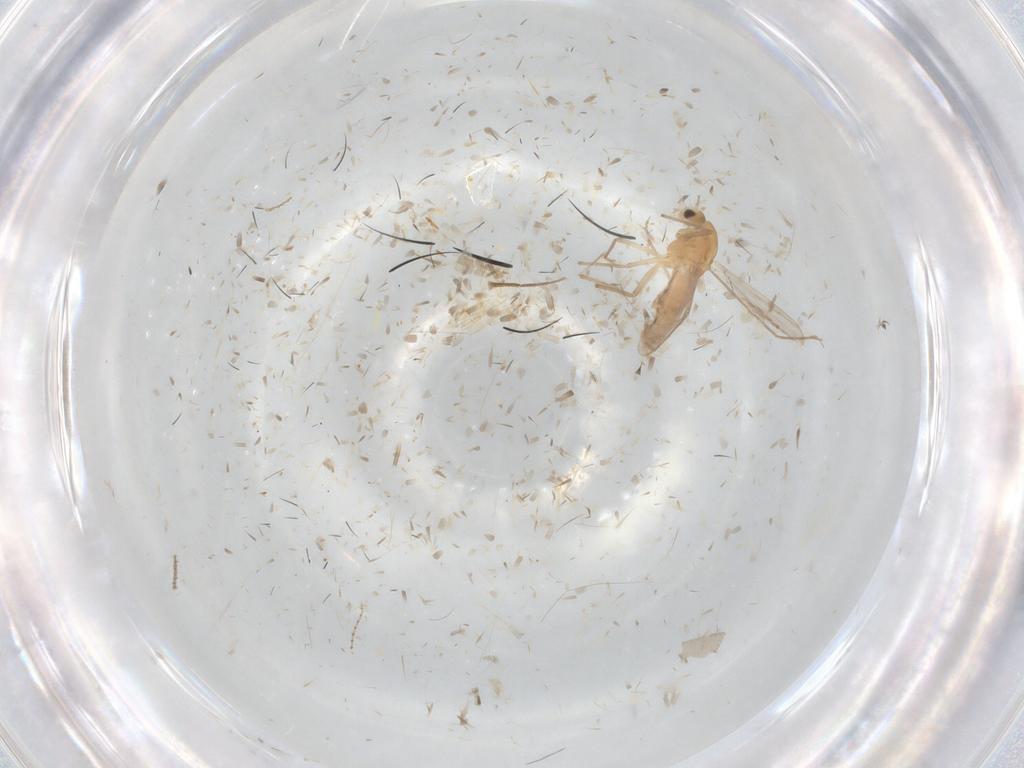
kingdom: Animalia
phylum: Arthropoda
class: Insecta
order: Diptera
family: Chironomidae
